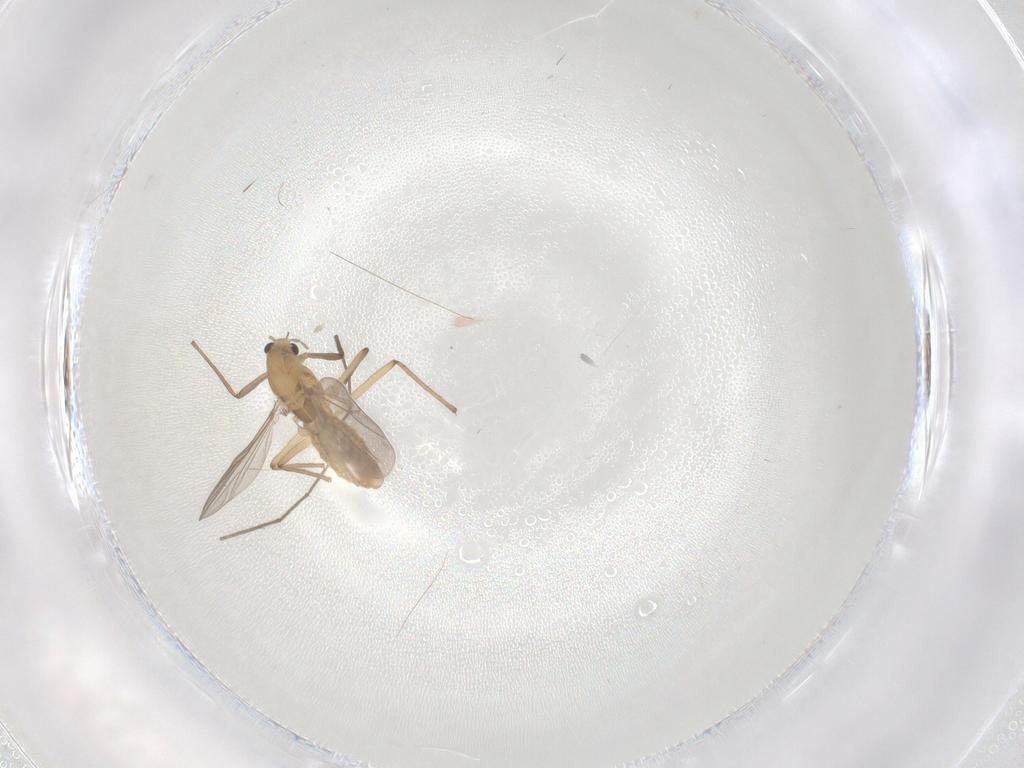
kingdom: Animalia
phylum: Arthropoda
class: Insecta
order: Diptera
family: Chironomidae
